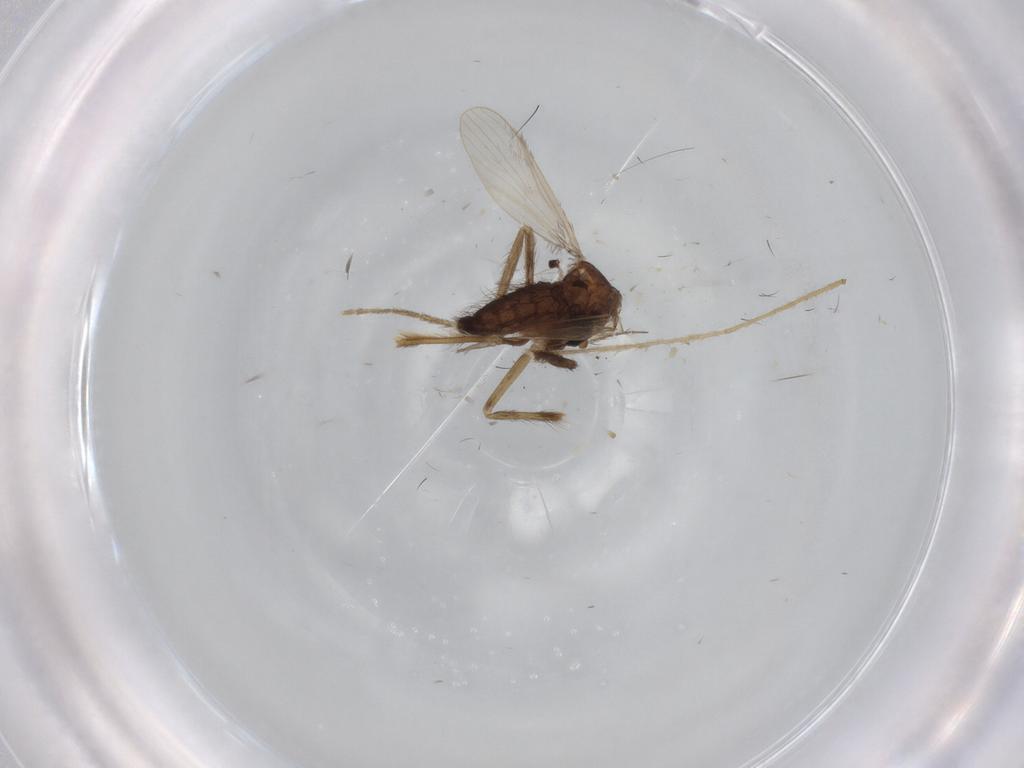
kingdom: Animalia
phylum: Arthropoda
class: Insecta
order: Diptera
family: Corethrellidae
